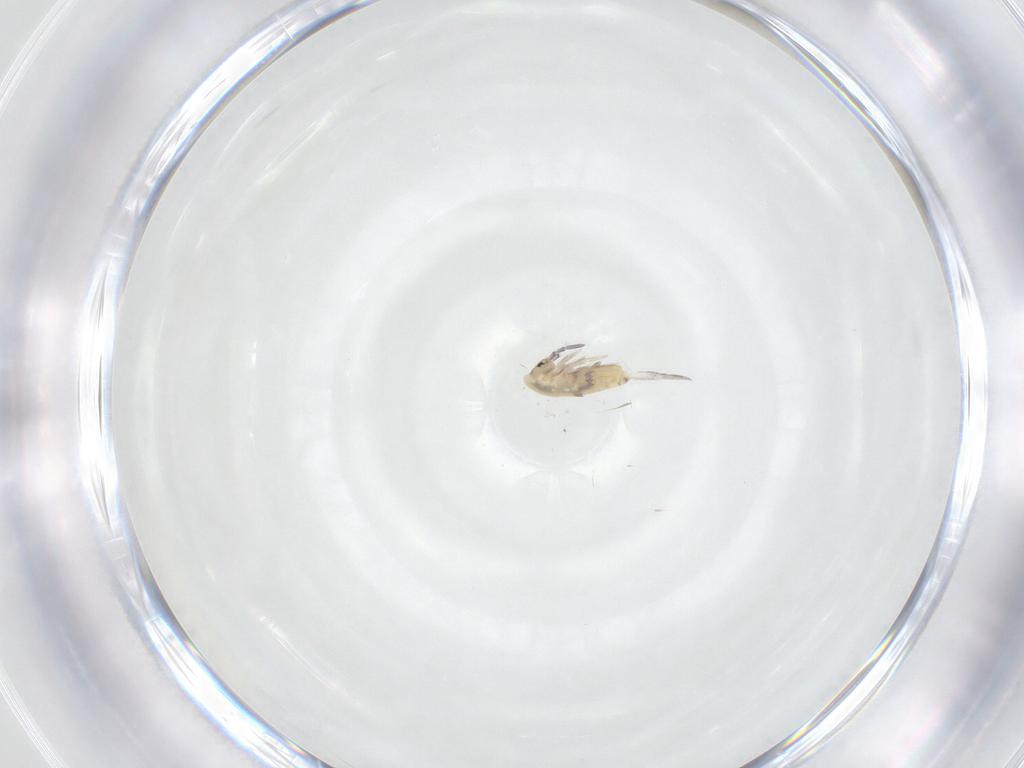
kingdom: Animalia
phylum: Arthropoda
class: Collembola
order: Entomobryomorpha
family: Entomobryidae
